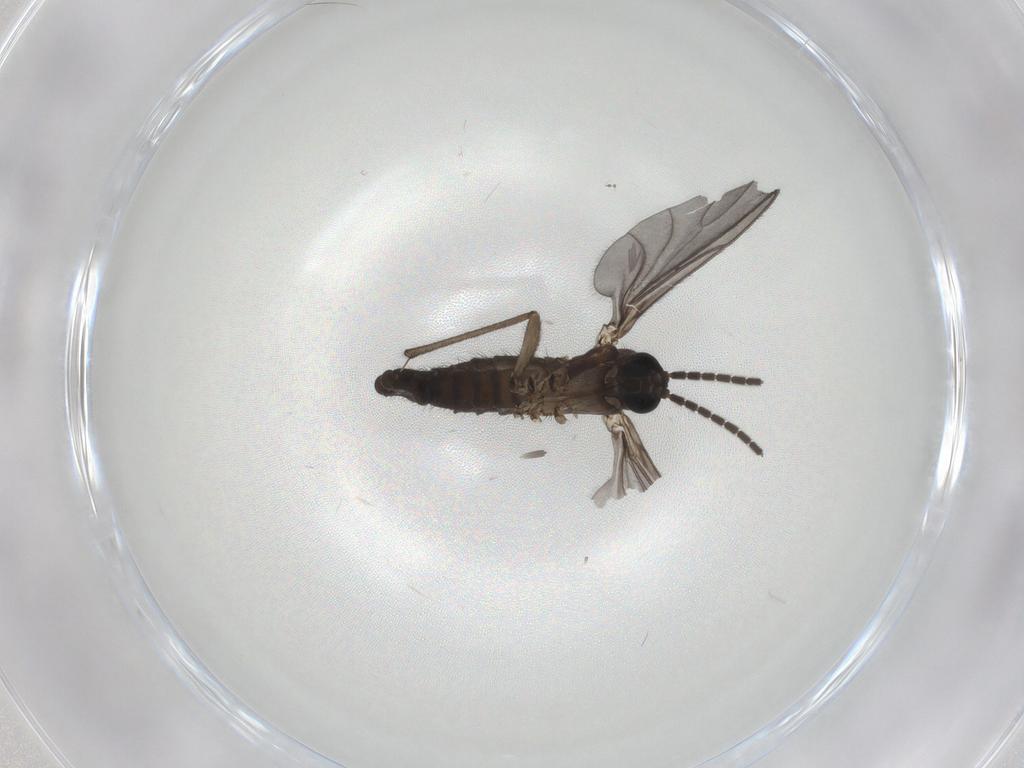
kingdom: Animalia
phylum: Arthropoda
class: Insecta
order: Diptera
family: Sciaridae
